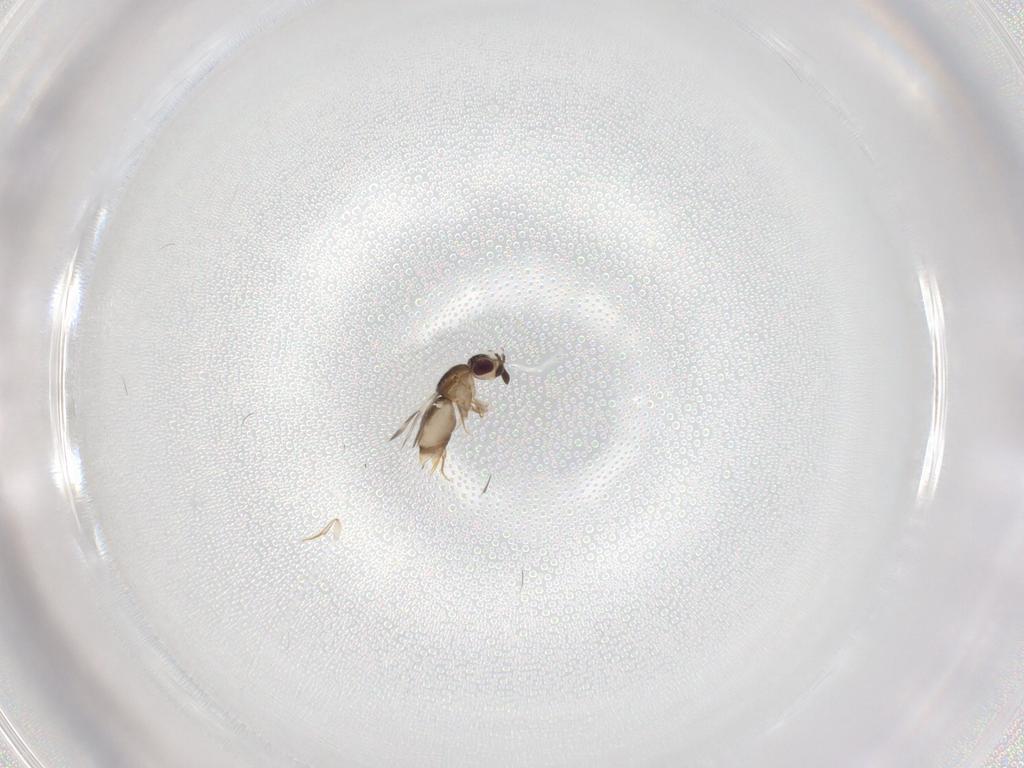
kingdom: Animalia
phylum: Arthropoda
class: Insecta
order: Hymenoptera
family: Ceraphronidae
